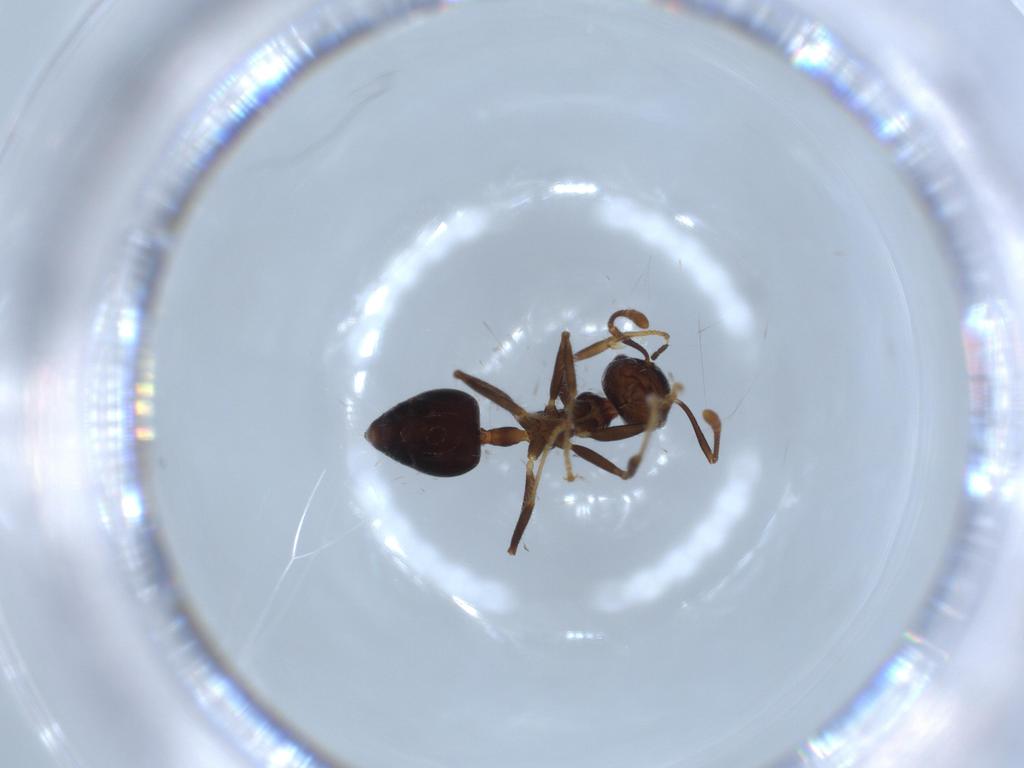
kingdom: Animalia
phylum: Arthropoda
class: Insecta
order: Hymenoptera
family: Formicidae
